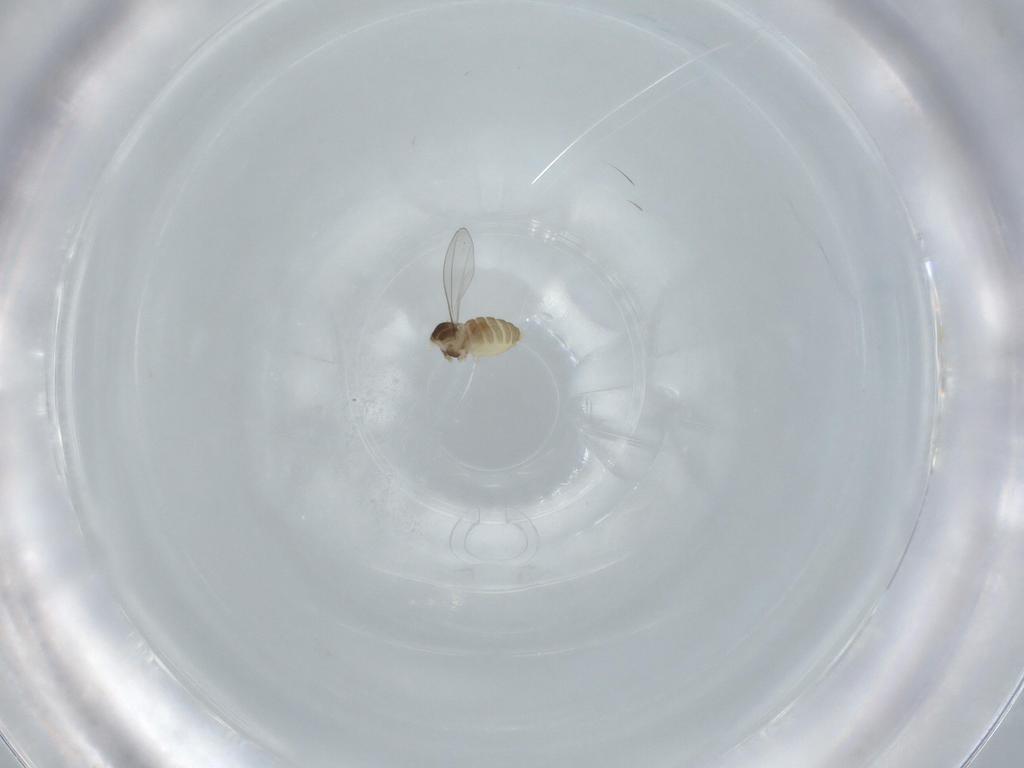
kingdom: Animalia
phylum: Arthropoda
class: Insecta
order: Diptera
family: Cecidomyiidae
